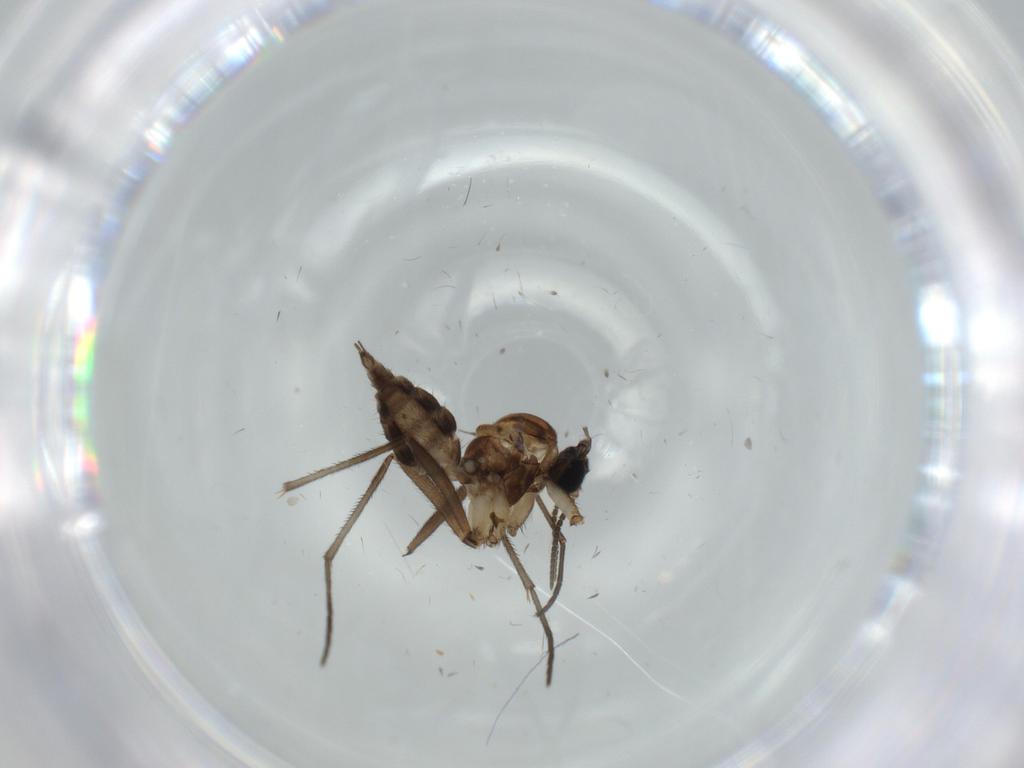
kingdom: Animalia
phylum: Arthropoda
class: Insecta
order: Diptera
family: Sciaridae
